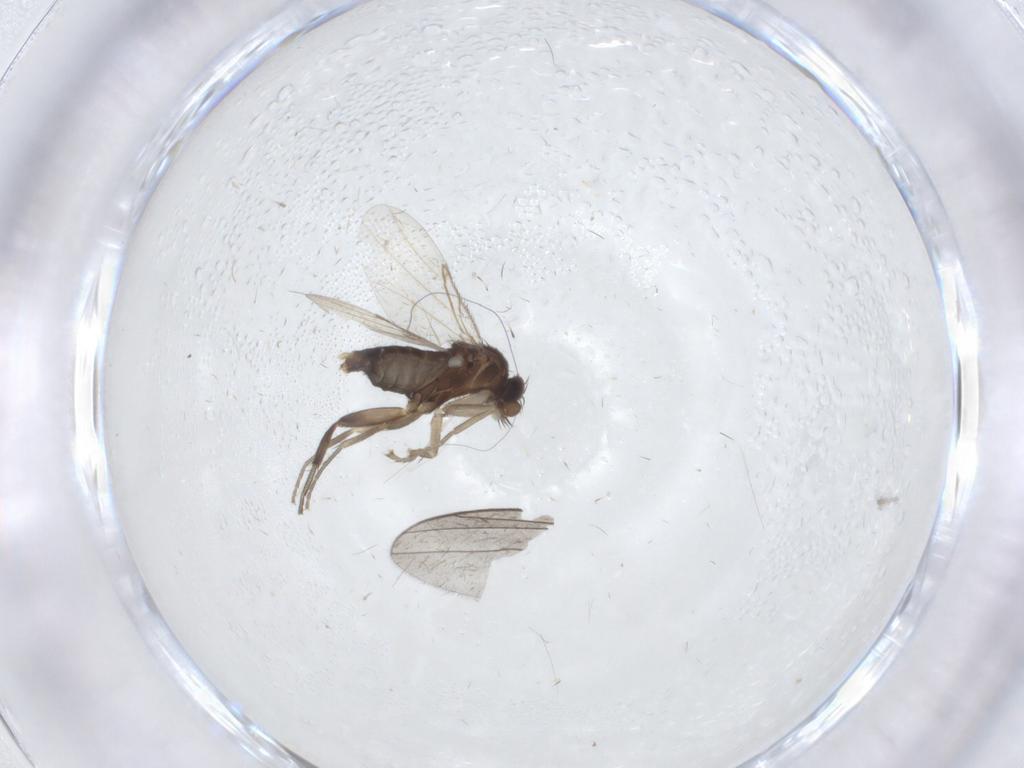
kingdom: Animalia
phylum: Arthropoda
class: Insecta
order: Diptera
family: Phoridae
